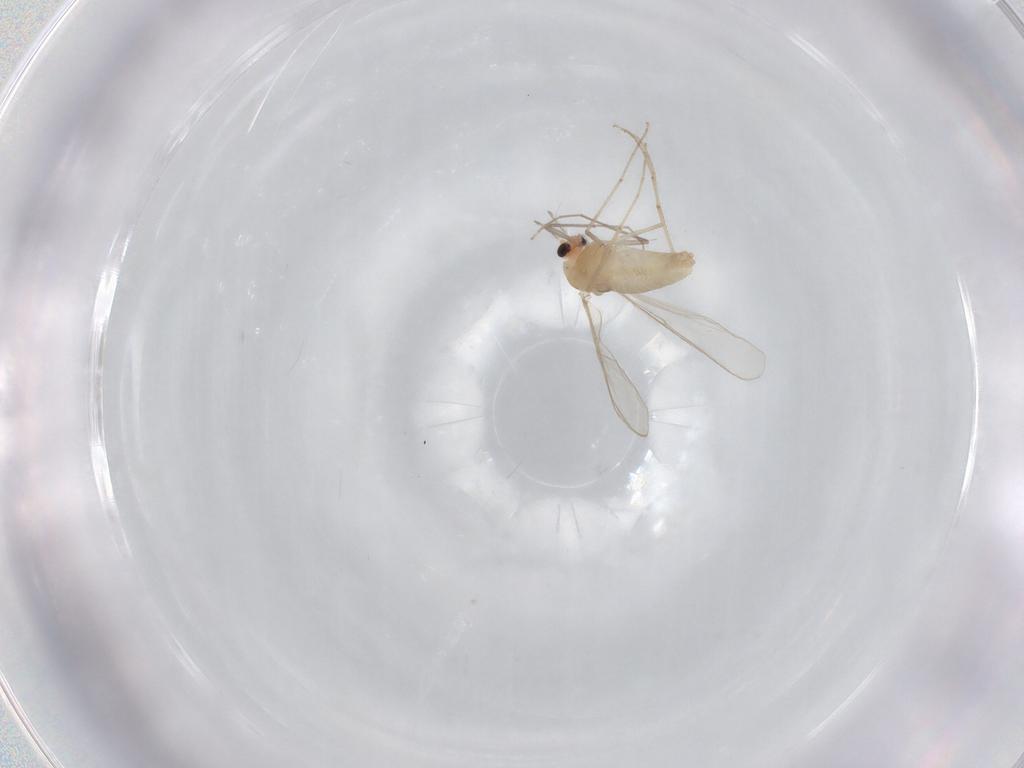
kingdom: Animalia
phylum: Arthropoda
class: Insecta
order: Diptera
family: Chironomidae
